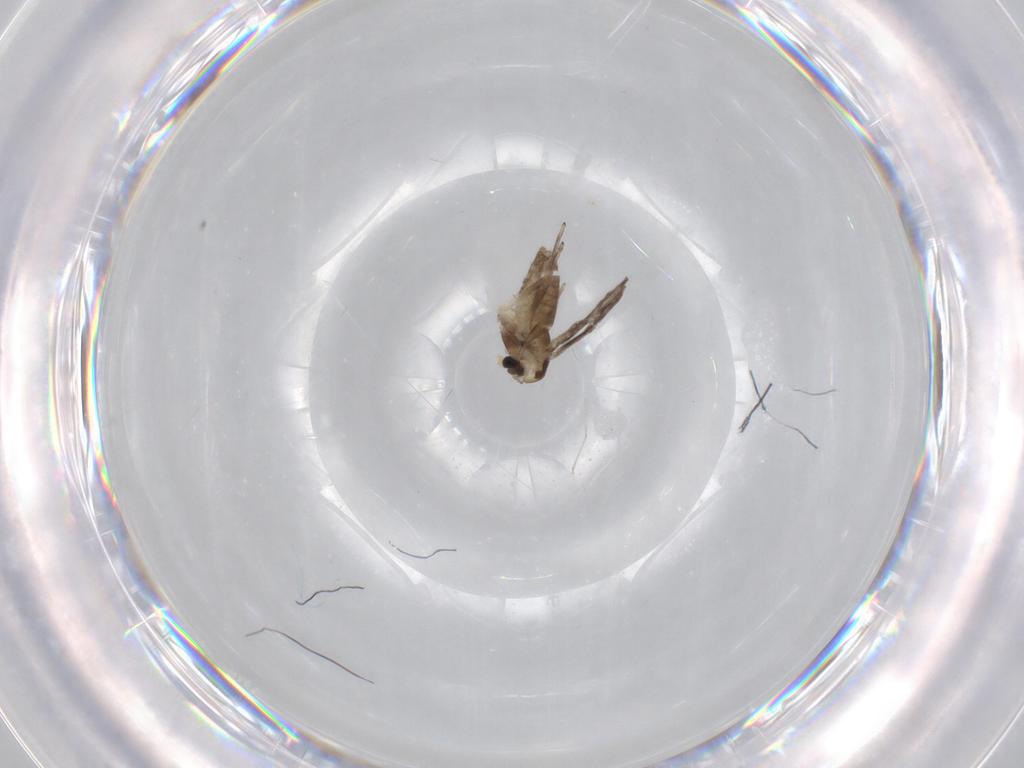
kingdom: Animalia
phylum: Arthropoda
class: Insecta
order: Diptera
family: Chironomidae
